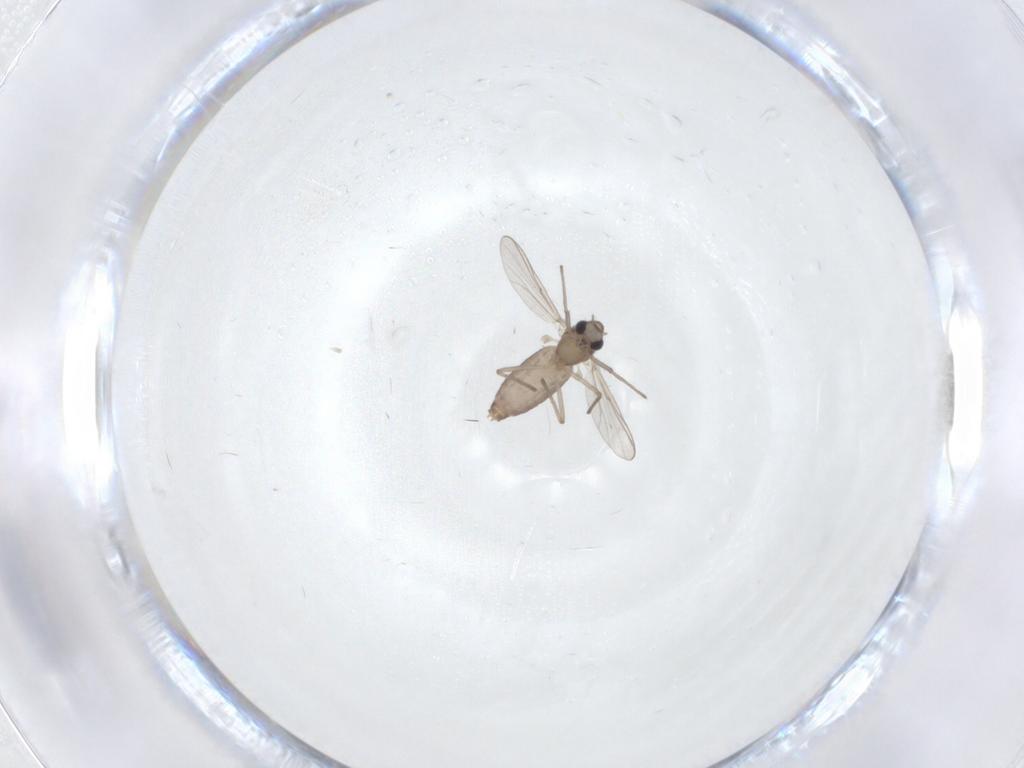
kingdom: Animalia
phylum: Arthropoda
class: Insecta
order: Diptera
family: Chironomidae
